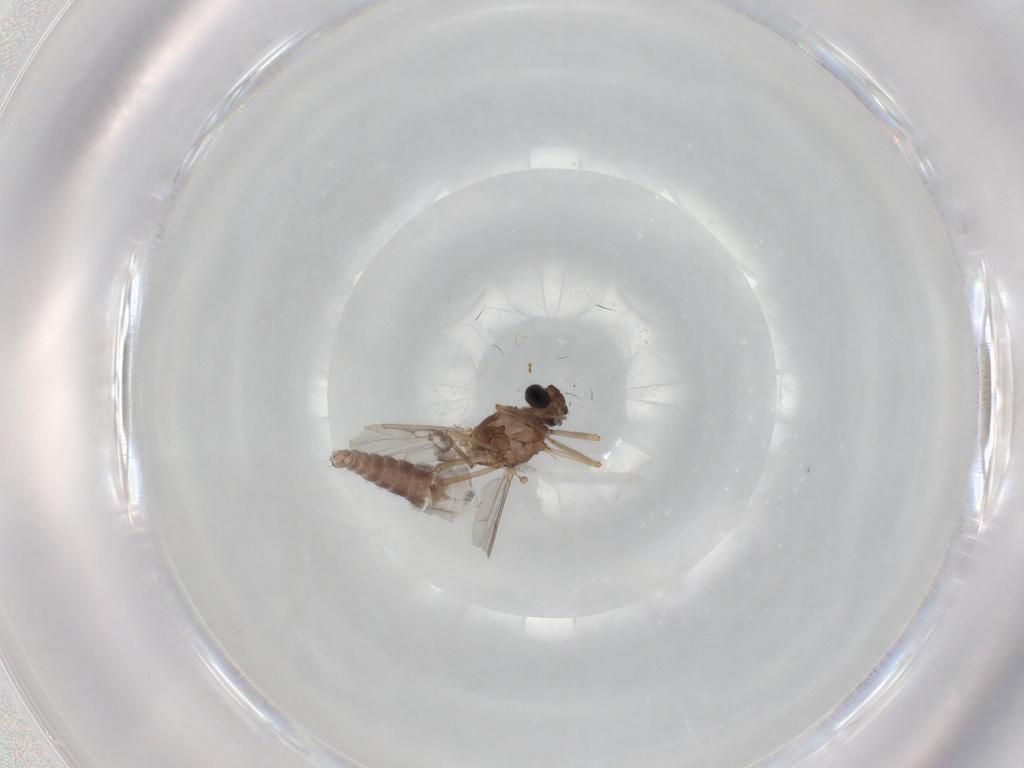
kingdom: Animalia
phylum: Arthropoda
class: Insecta
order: Diptera
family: Ceratopogonidae
